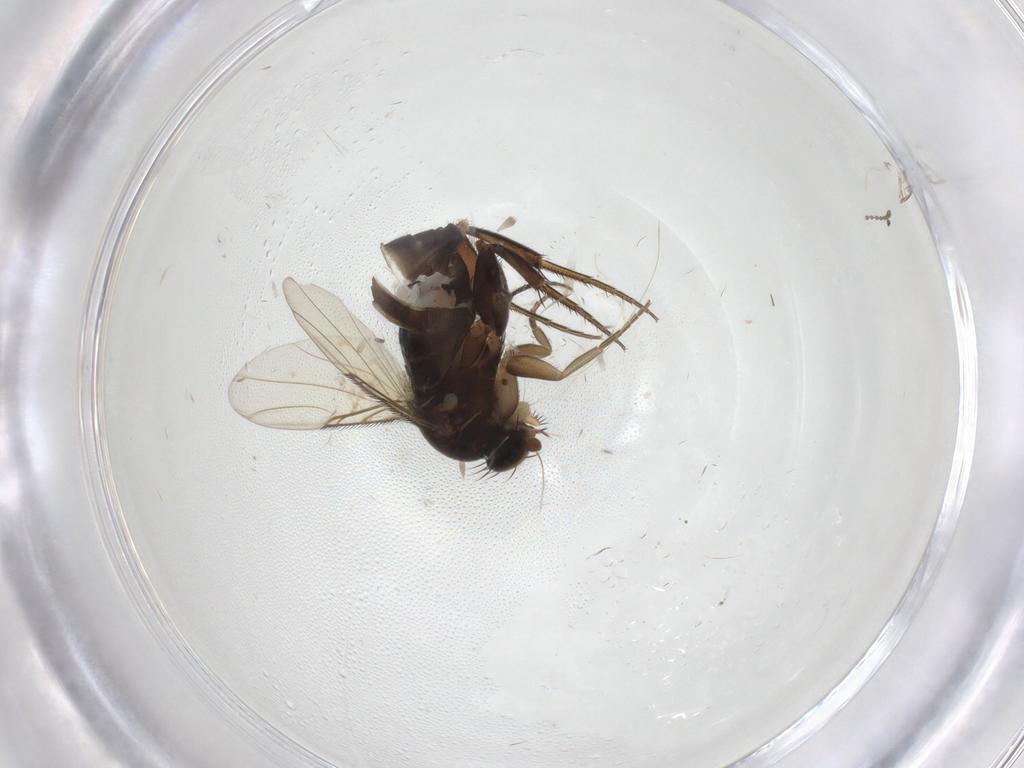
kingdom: Animalia
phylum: Arthropoda
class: Insecta
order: Diptera
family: Phoridae
